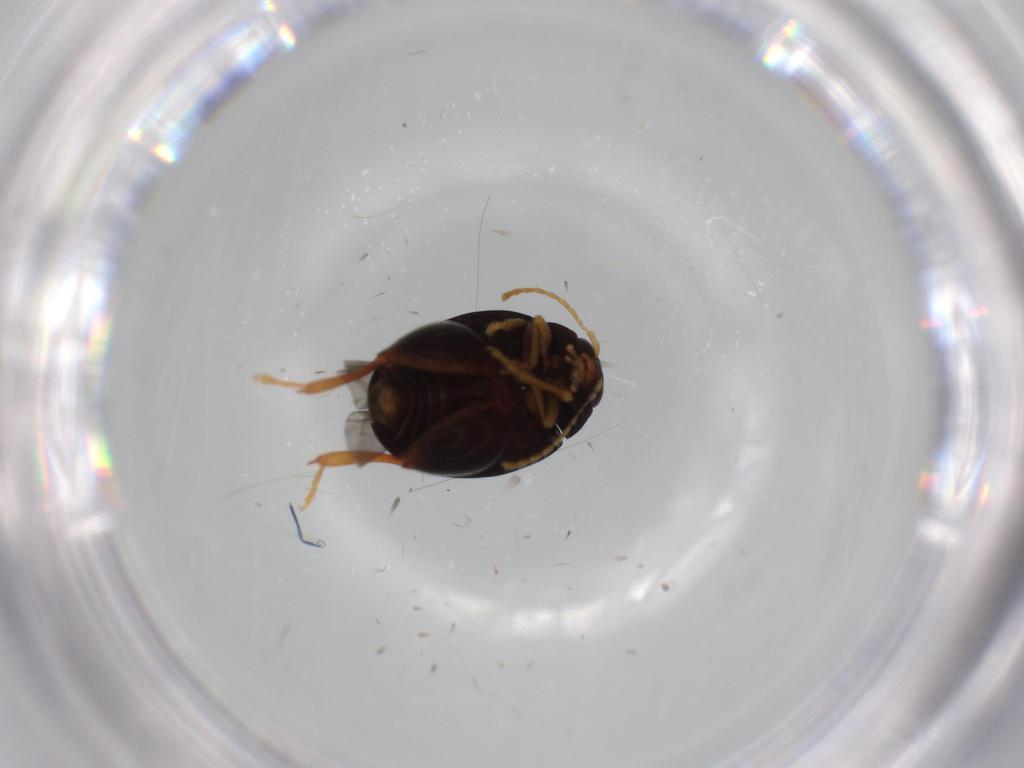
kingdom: Animalia
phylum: Arthropoda
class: Insecta
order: Coleoptera
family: Chrysomelidae
